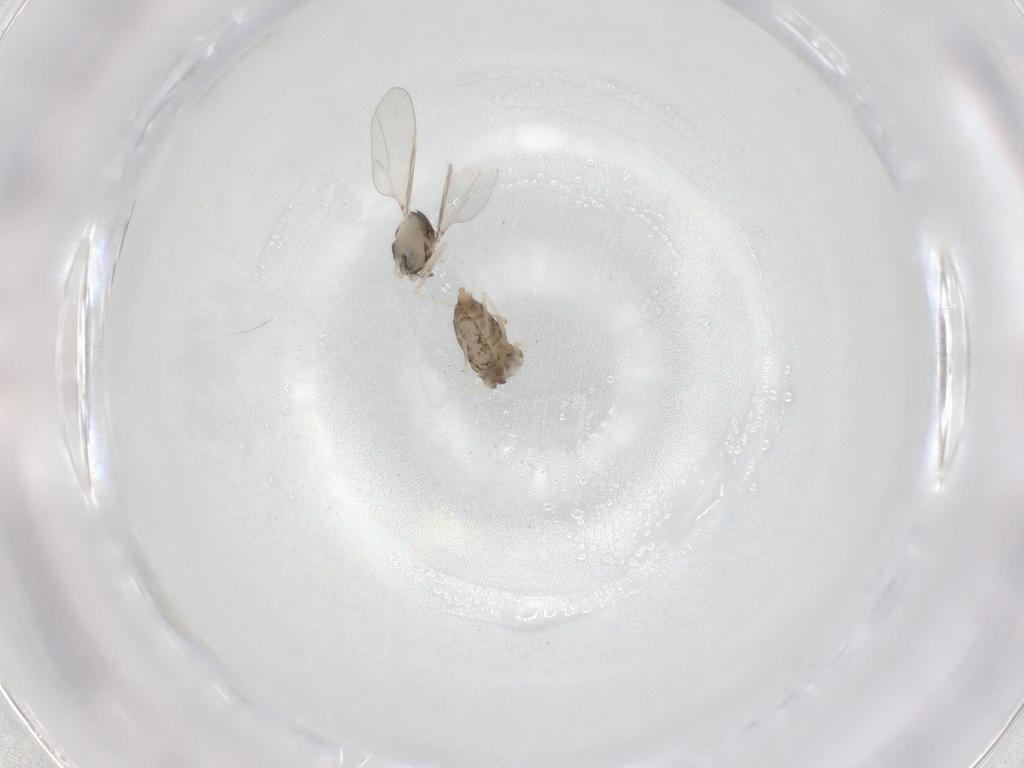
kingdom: Animalia
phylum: Arthropoda
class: Insecta
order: Diptera
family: Cecidomyiidae
